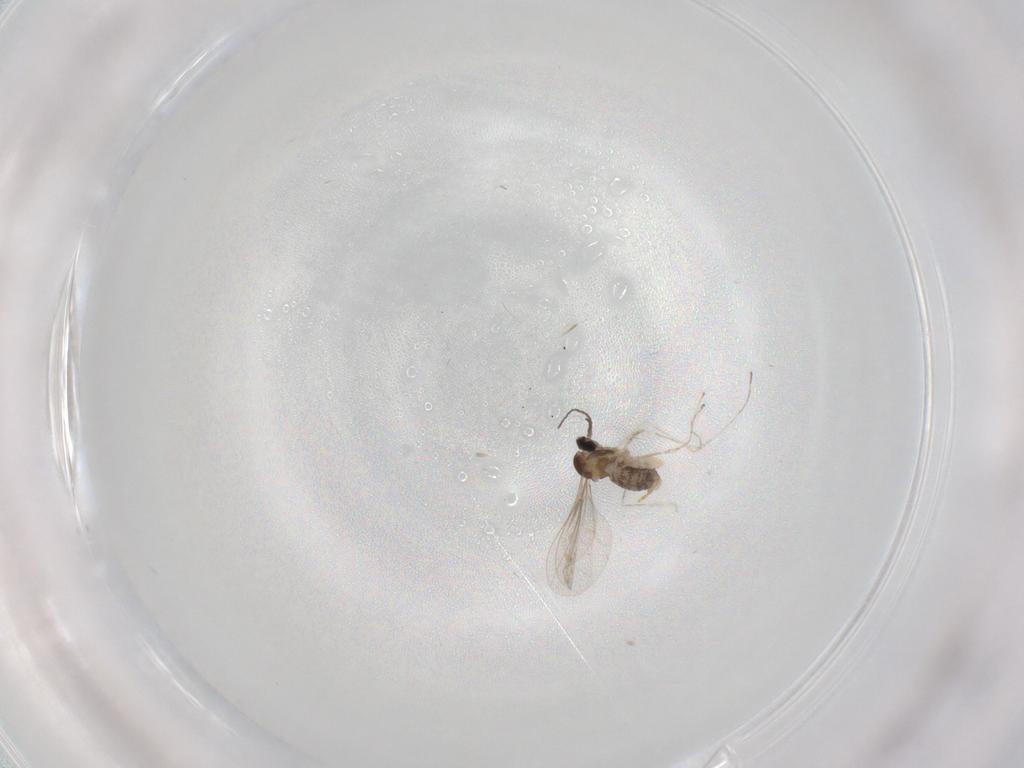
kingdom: Animalia
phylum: Arthropoda
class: Insecta
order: Diptera
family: Cecidomyiidae
